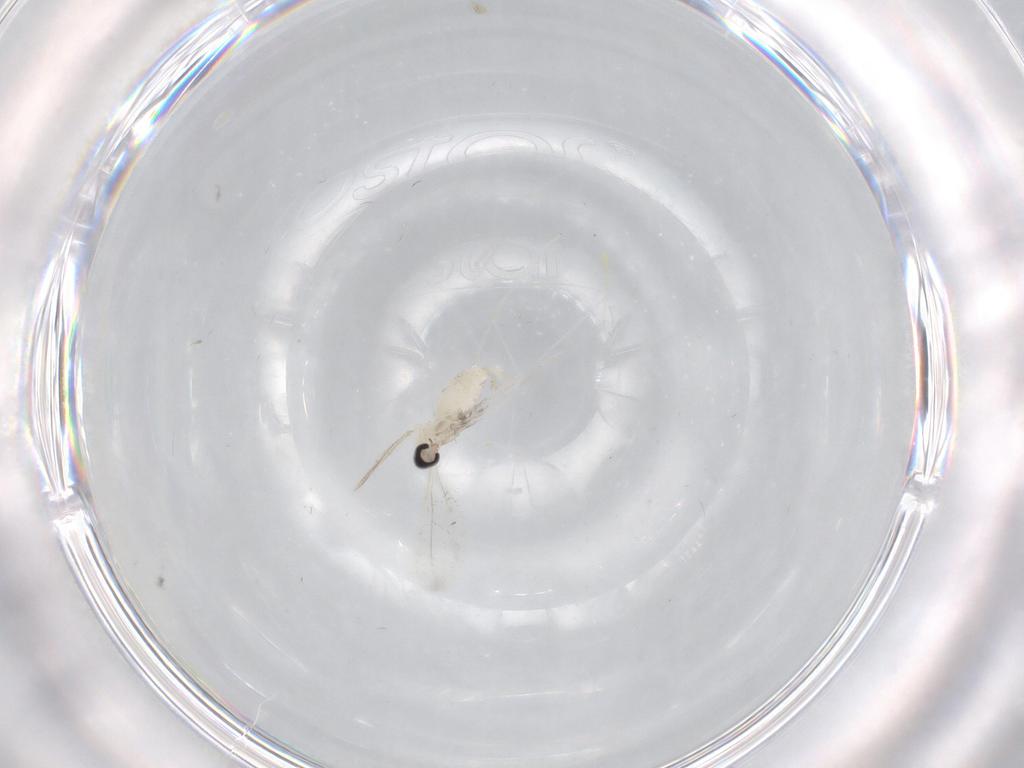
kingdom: Animalia
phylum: Arthropoda
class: Insecta
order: Diptera
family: Cecidomyiidae
